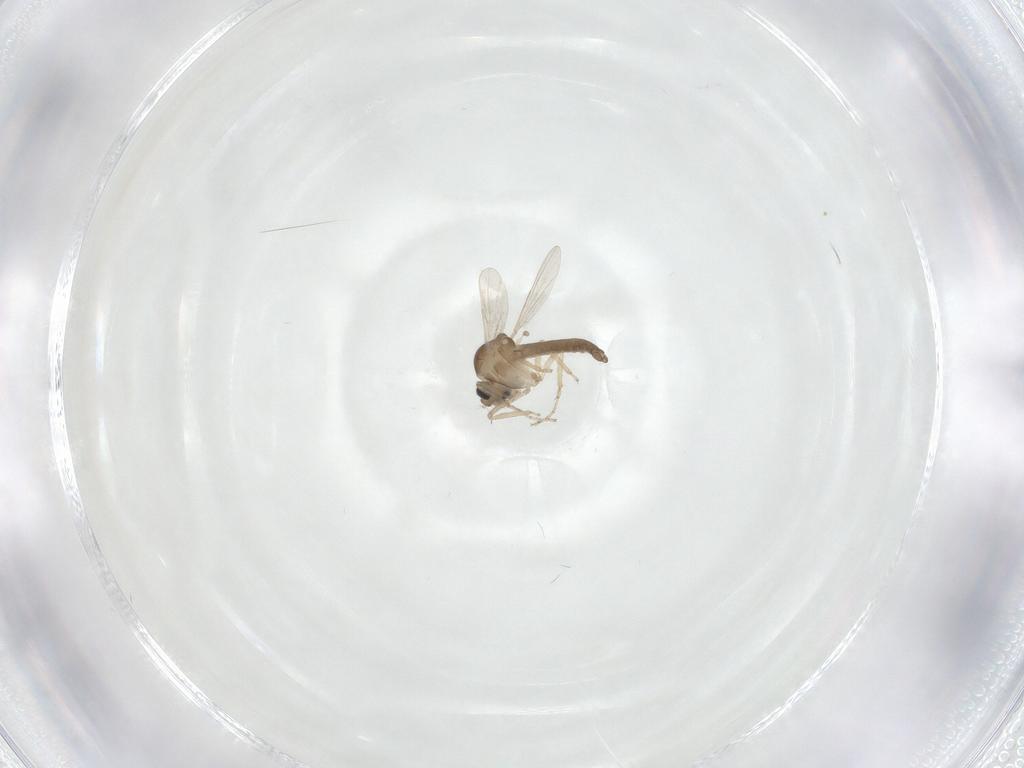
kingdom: Animalia
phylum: Arthropoda
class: Insecta
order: Diptera
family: Ceratopogonidae
